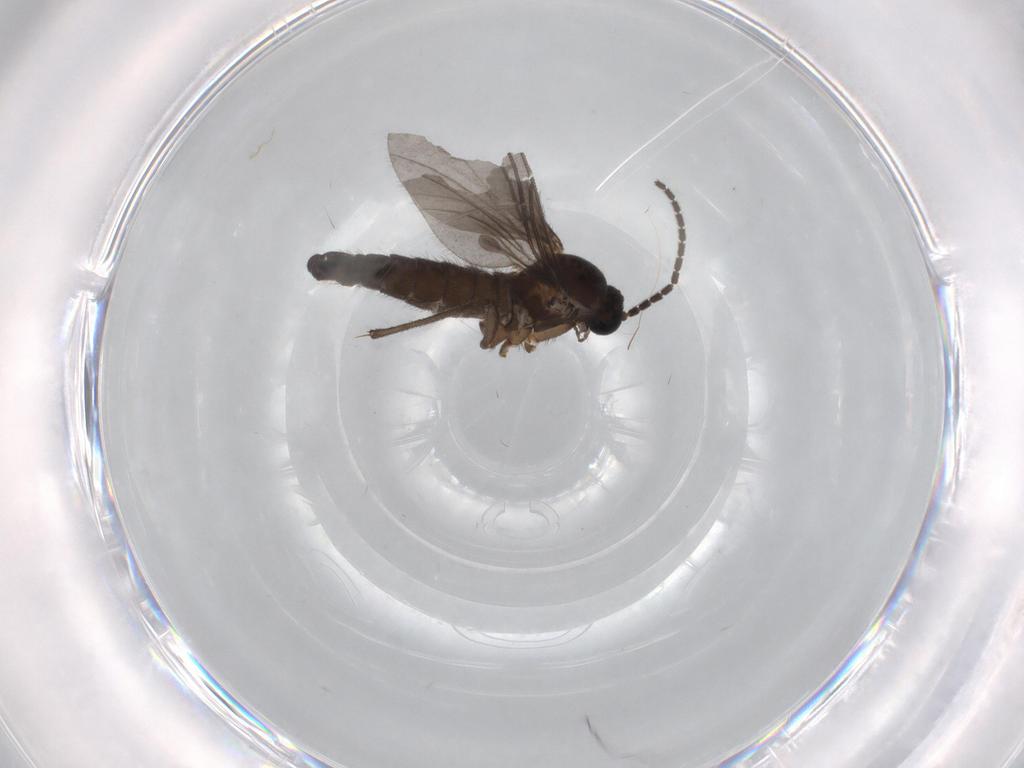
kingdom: Animalia
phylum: Arthropoda
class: Insecta
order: Diptera
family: Sciaridae
